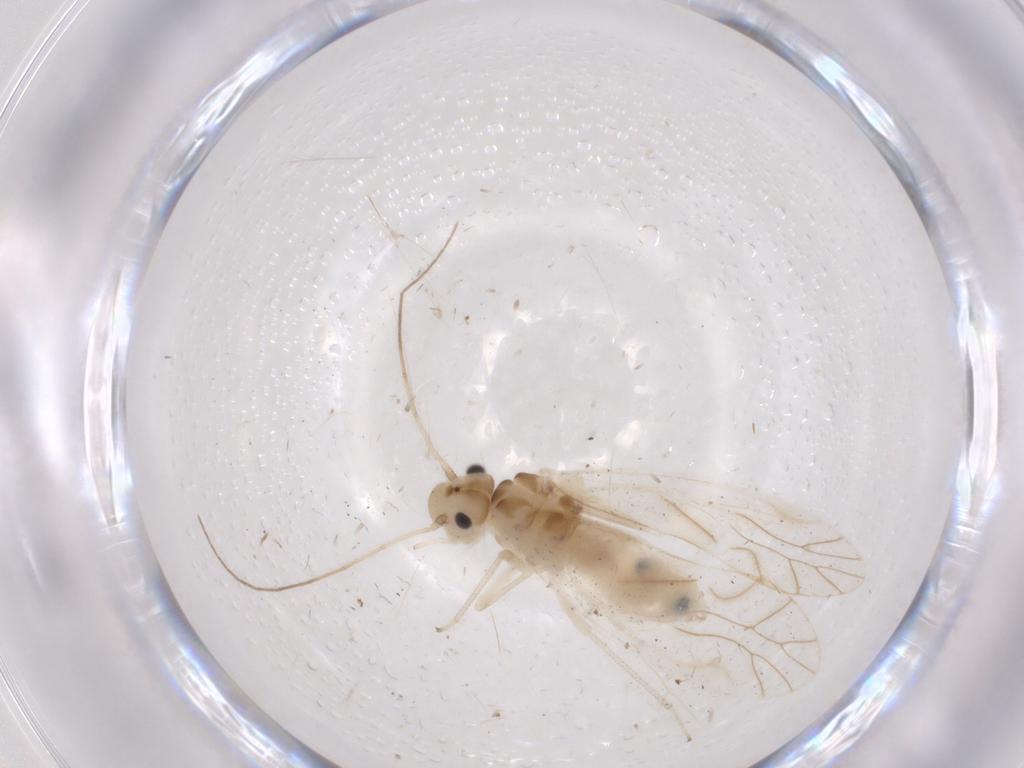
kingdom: Animalia
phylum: Arthropoda
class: Insecta
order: Psocodea
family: Caeciliusidae
